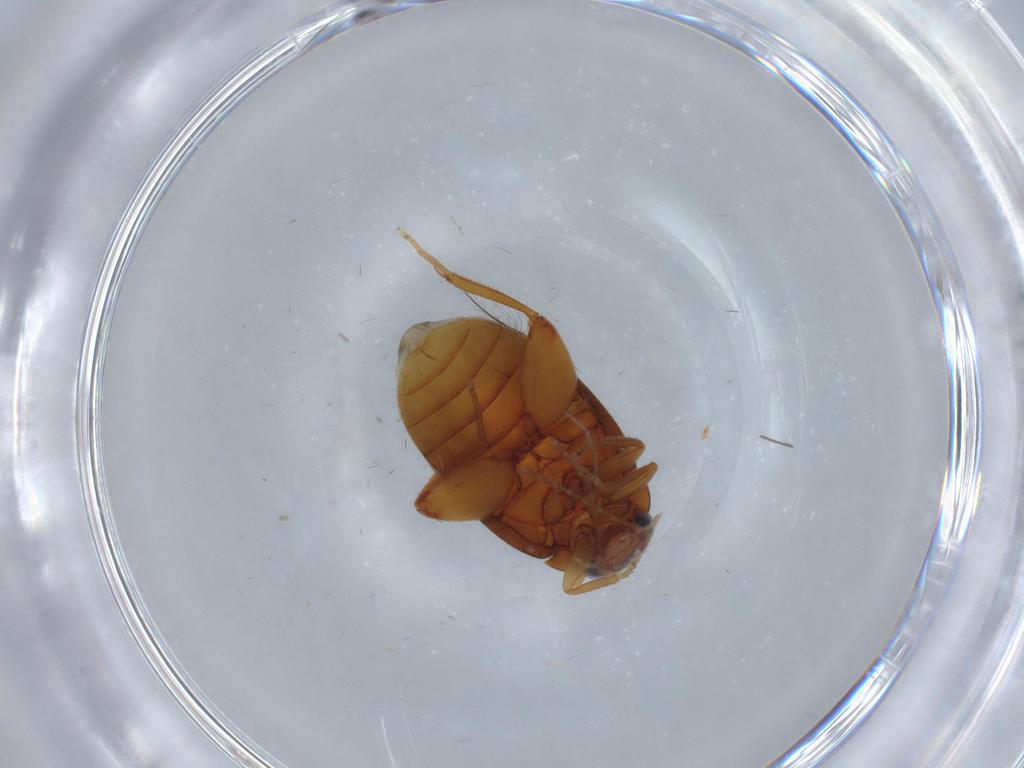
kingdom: Animalia
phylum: Arthropoda
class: Insecta
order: Coleoptera
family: Scirtidae
